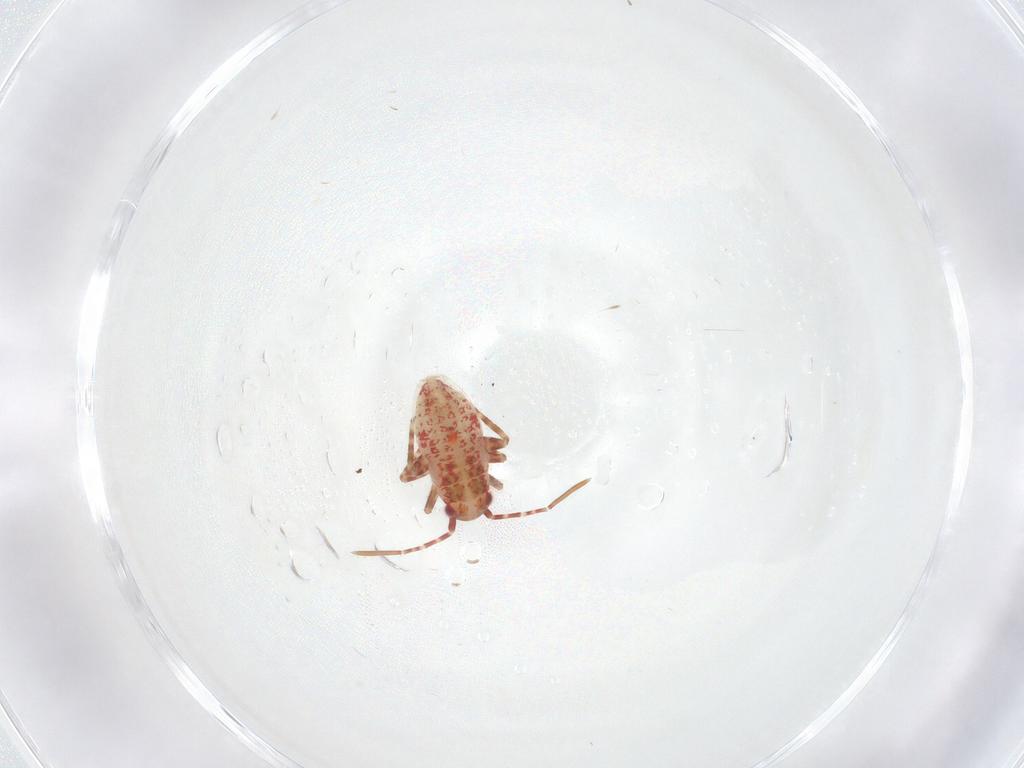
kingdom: Animalia
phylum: Arthropoda
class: Insecta
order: Hemiptera
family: Miridae
